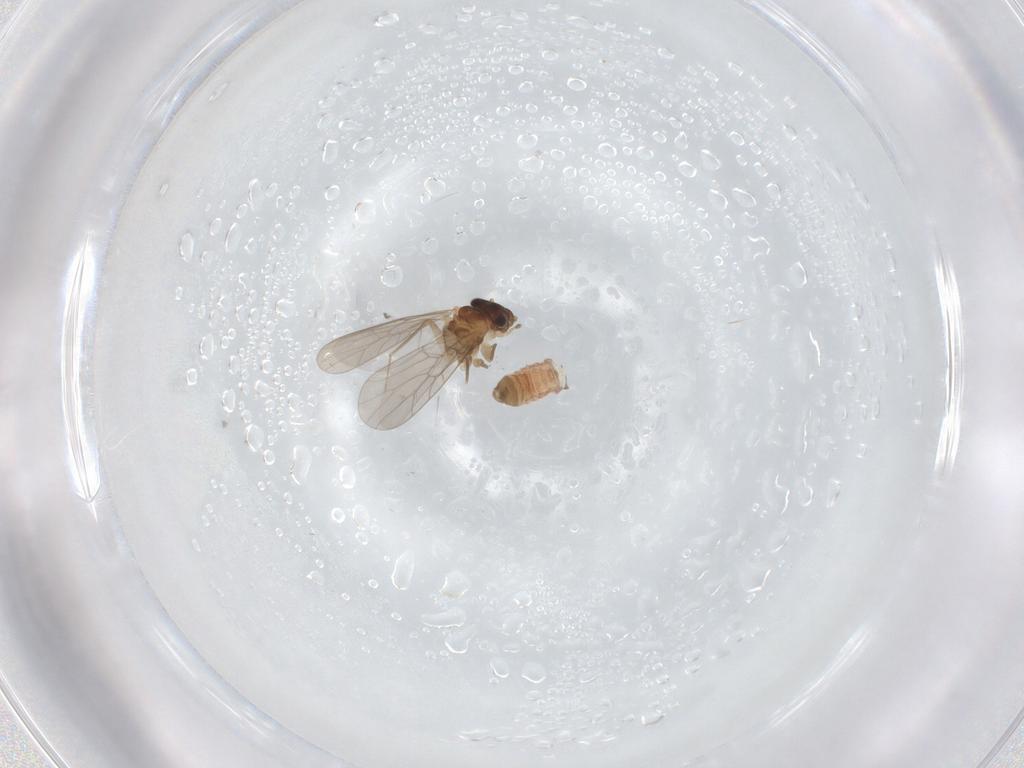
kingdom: Animalia
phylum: Arthropoda
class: Insecta
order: Psocodea
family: Lepidopsocidae
